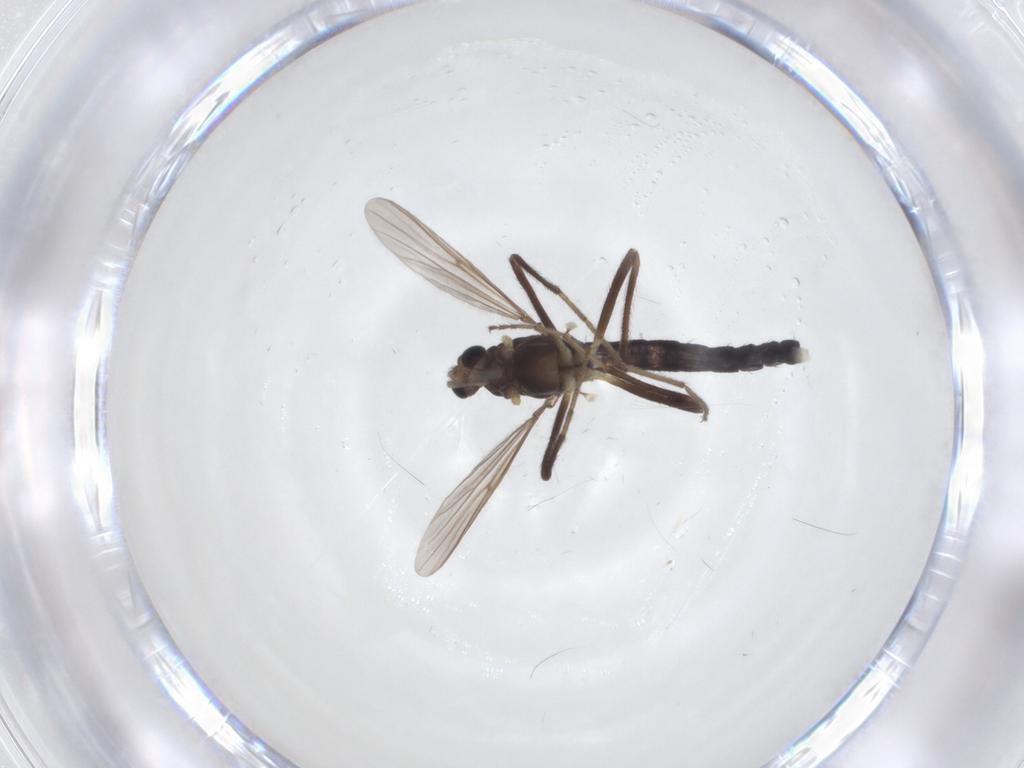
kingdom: Animalia
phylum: Arthropoda
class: Insecta
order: Diptera
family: Chironomidae
